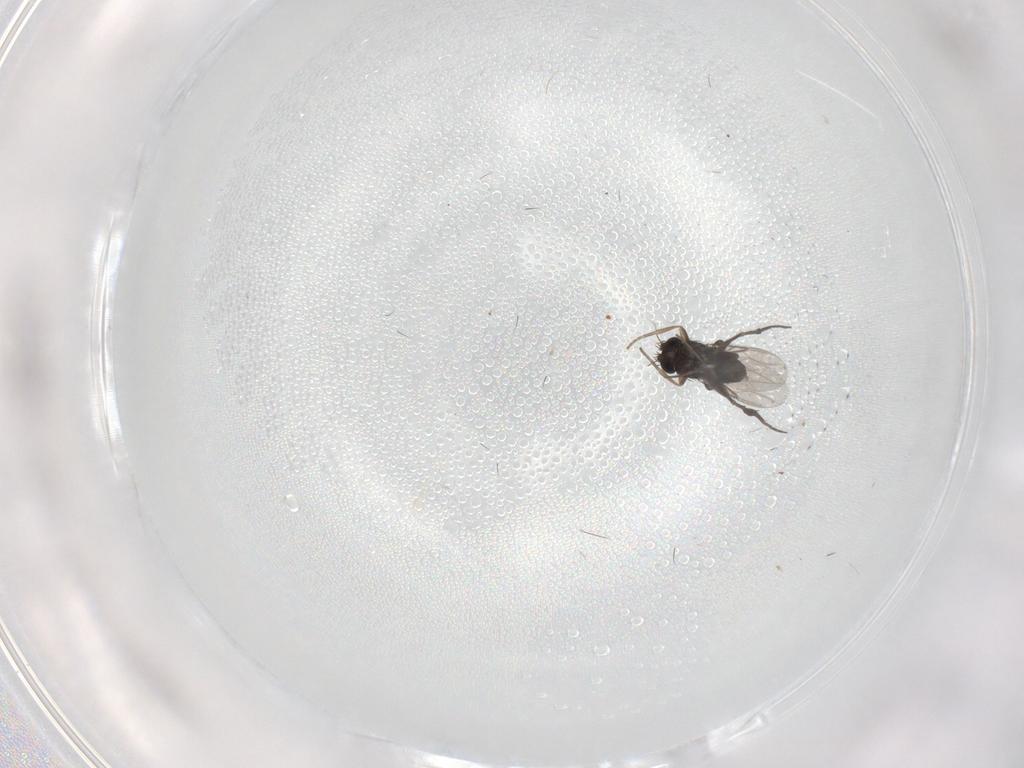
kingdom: Animalia
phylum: Arthropoda
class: Insecta
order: Diptera
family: Phoridae
